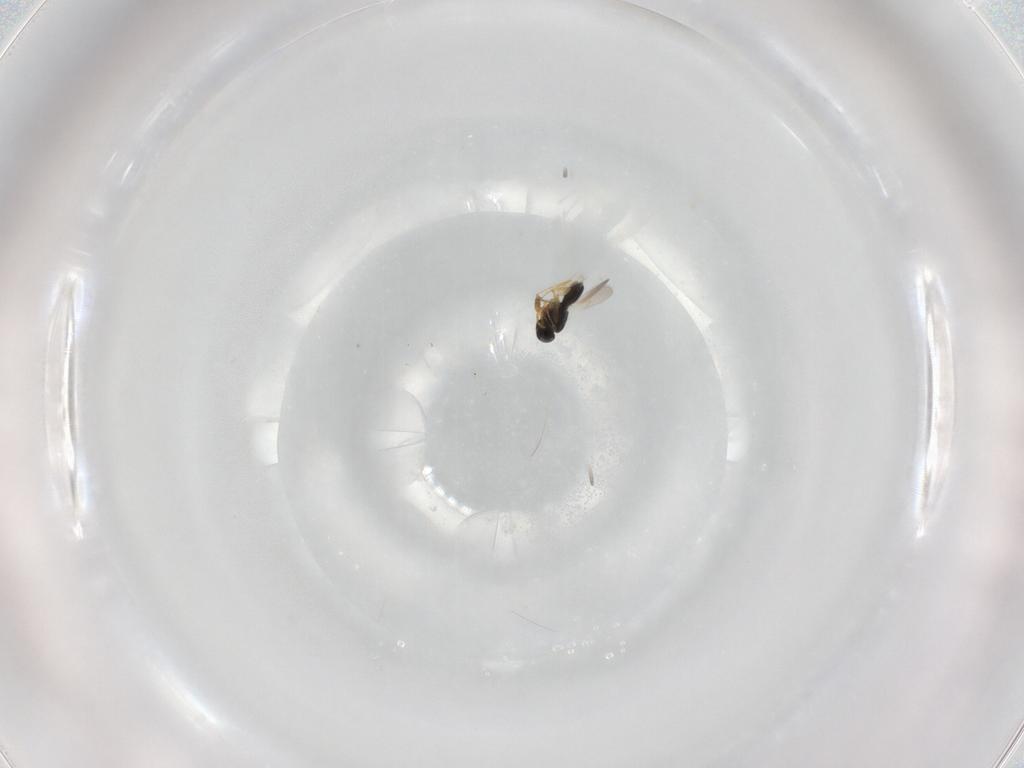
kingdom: Animalia
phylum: Arthropoda
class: Insecta
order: Hymenoptera
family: Scelionidae
